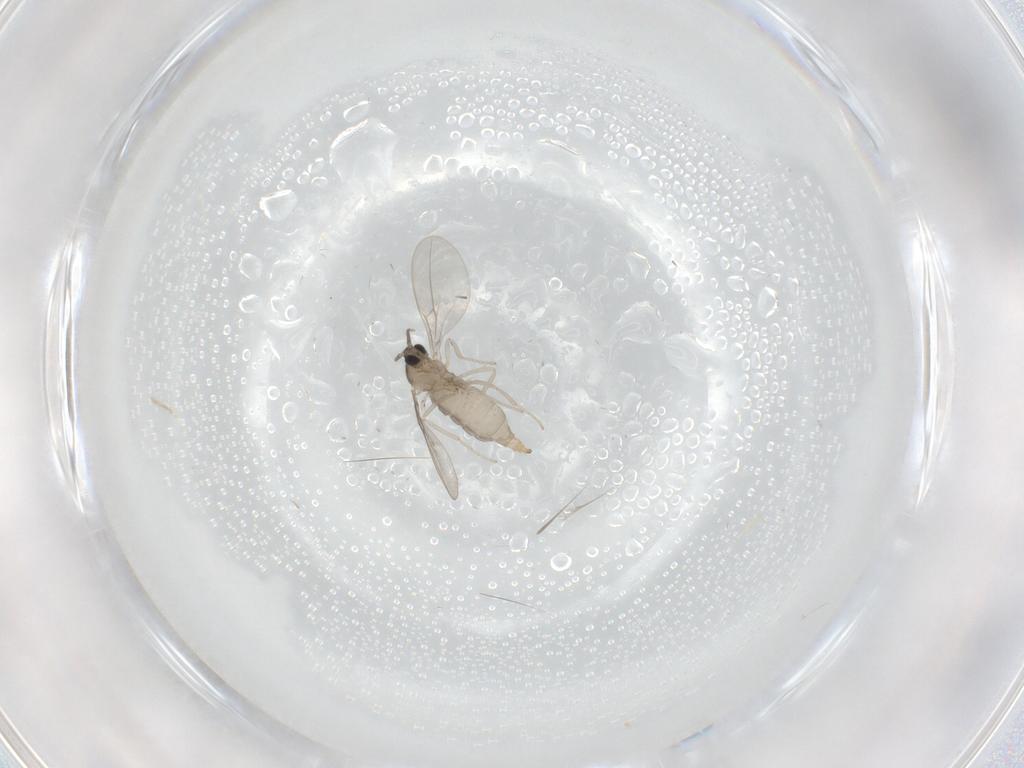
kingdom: Animalia
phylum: Arthropoda
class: Insecta
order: Diptera
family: Cecidomyiidae
